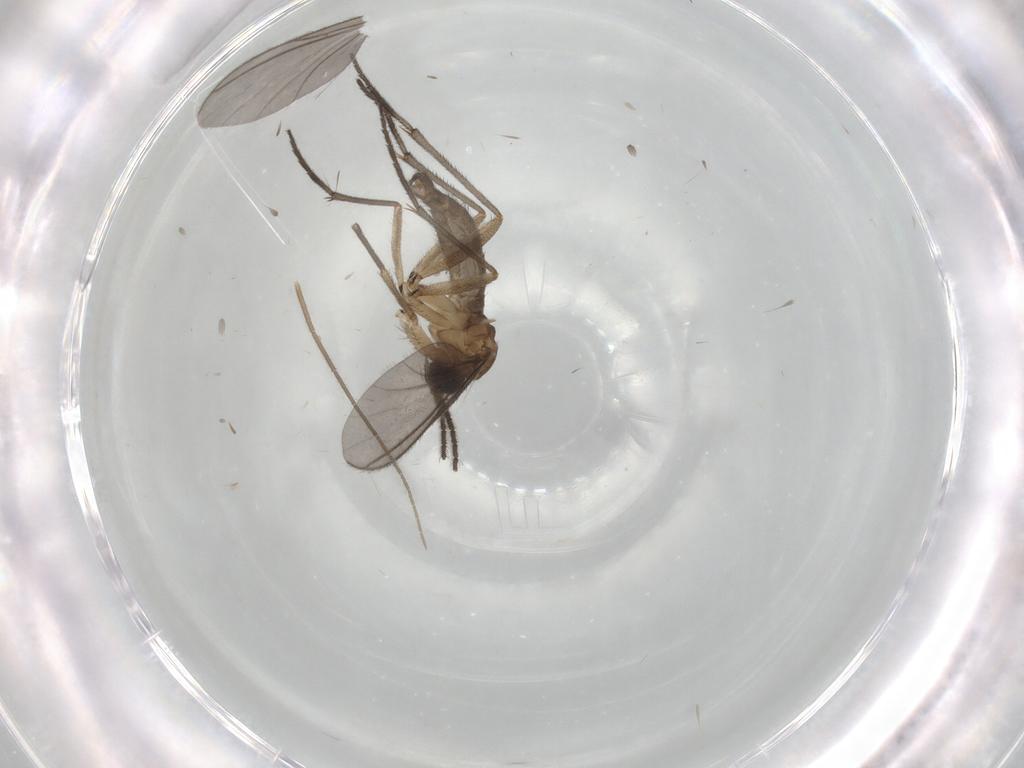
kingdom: Animalia
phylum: Arthropoda
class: Insecta
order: Diptera
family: Sciaridae
